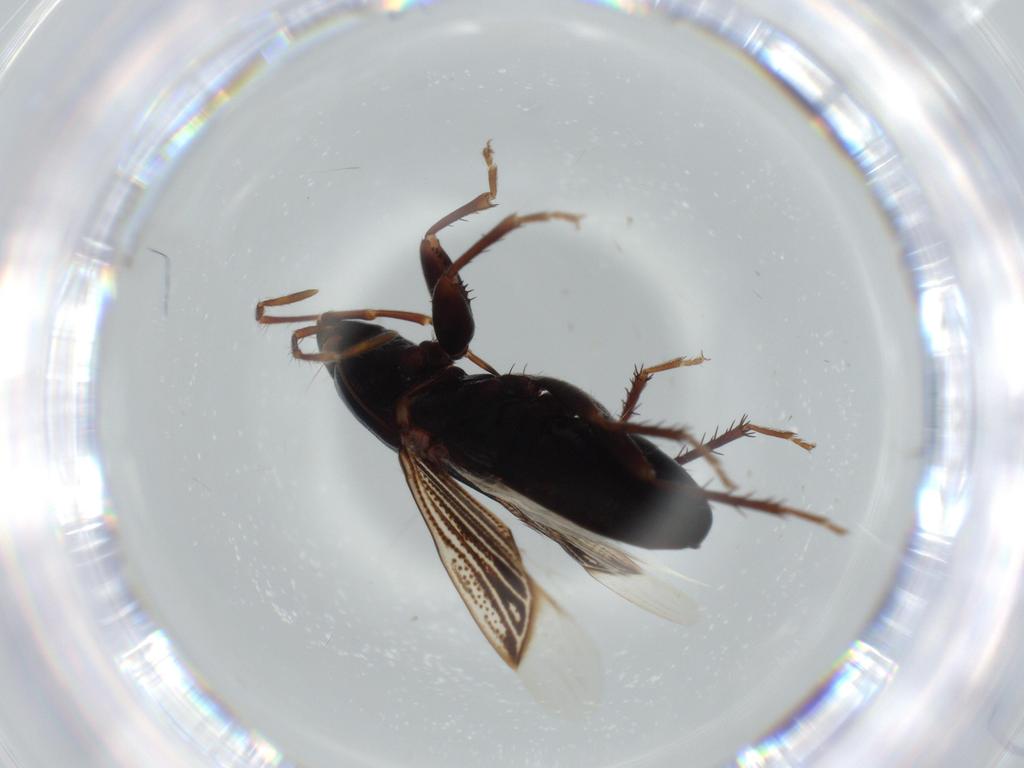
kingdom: Animalia
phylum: Arthropoda
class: Insecta
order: Hemiptera
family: Rhyparochromidae
